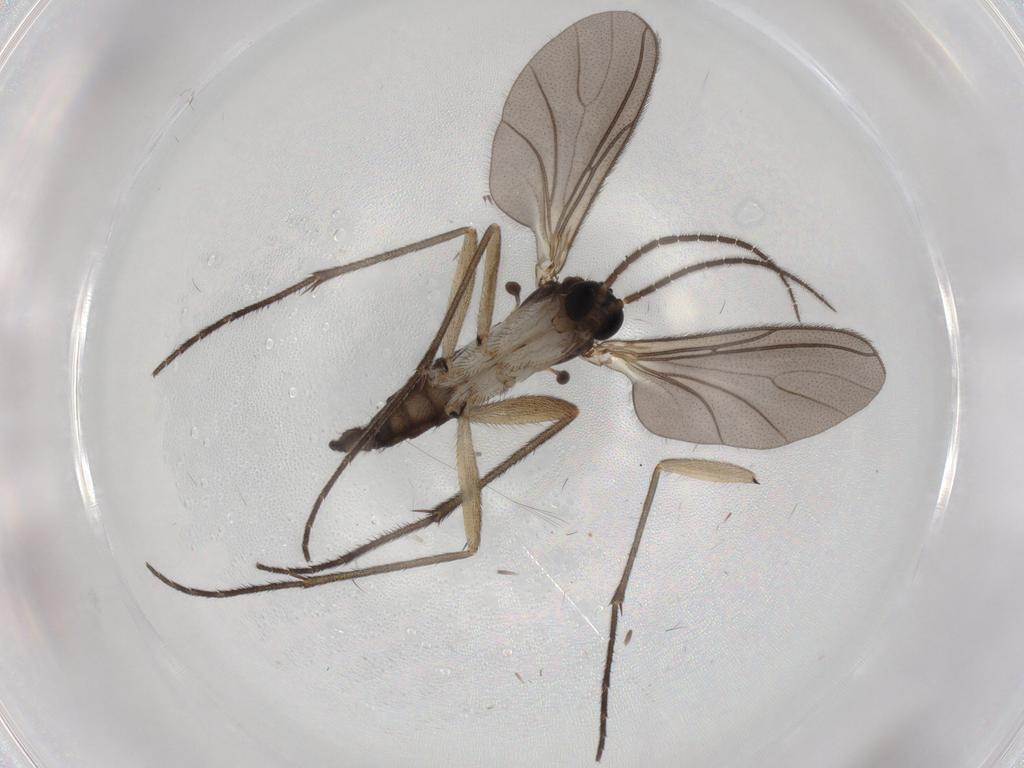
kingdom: Animalia
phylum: Arthropoda
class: Insecta
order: Diptera
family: Sciaridae
